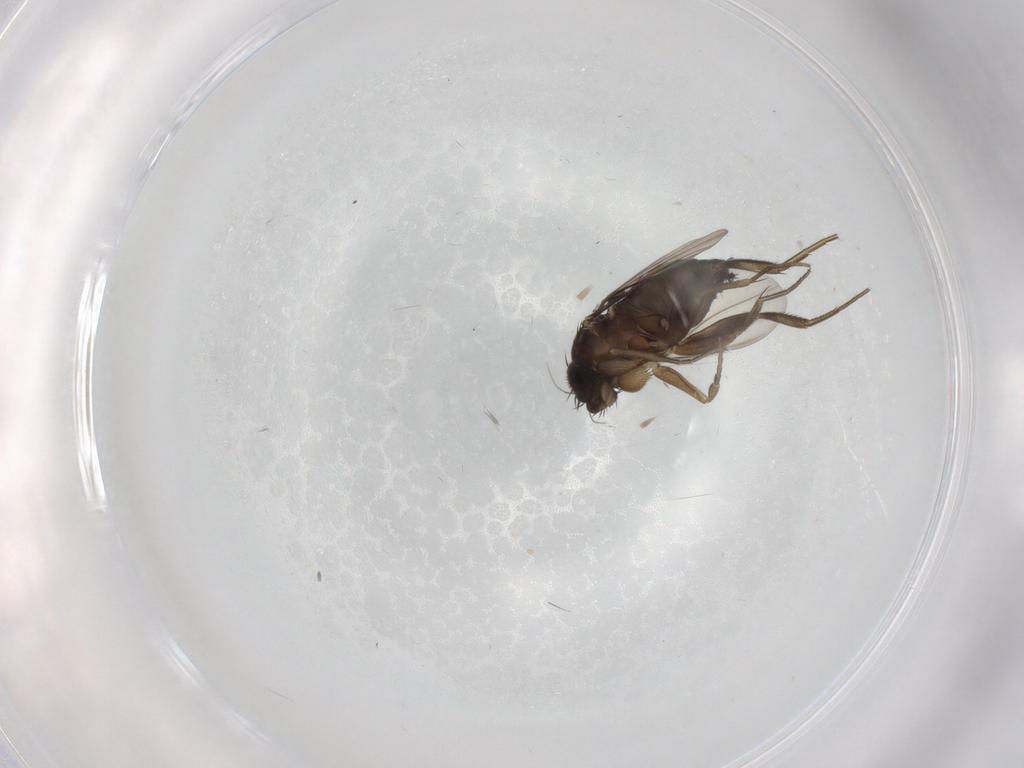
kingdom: Animalia
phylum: Arthropoda
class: Insecta
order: Diptera
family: Phoridae
